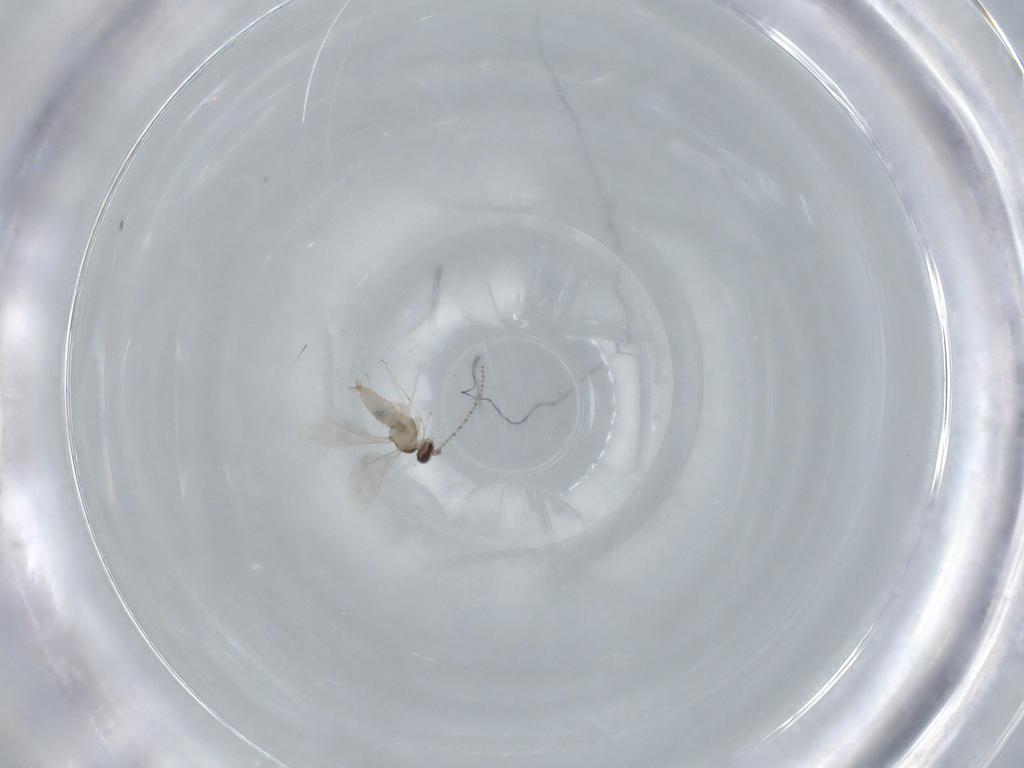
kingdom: Animalia
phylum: Arthropoda
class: Insecta
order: Diptera
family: Cecidomyiidae
